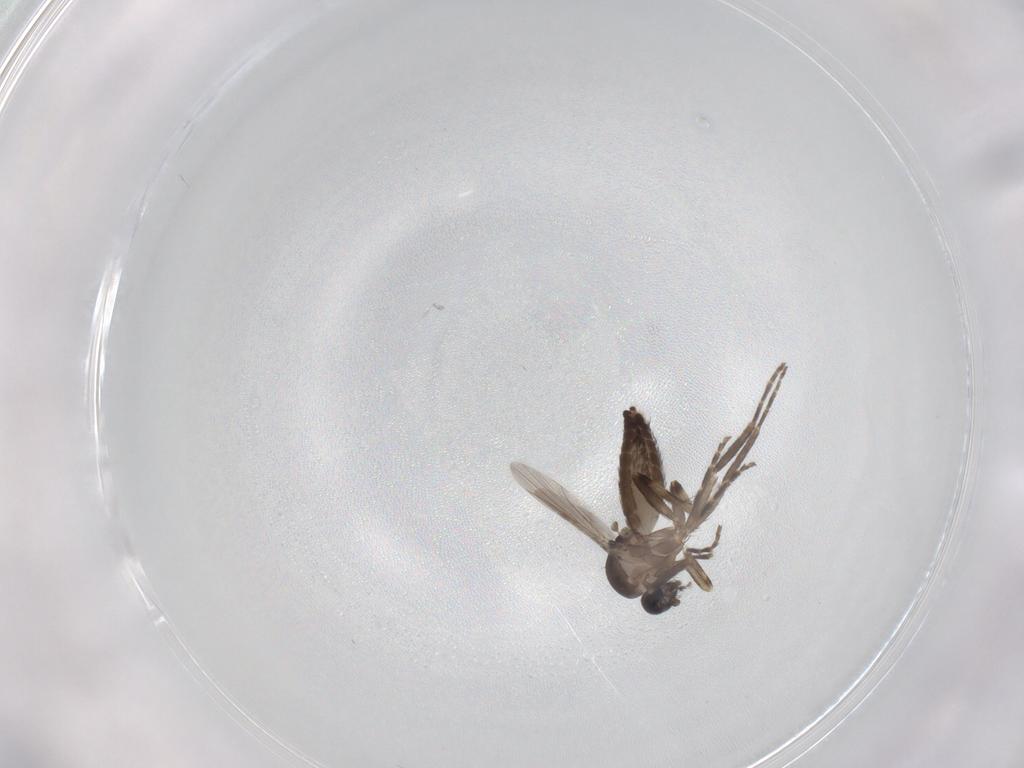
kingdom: Animalia
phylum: Arthropoda
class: Insecta
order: Diptera
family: Ceratopogonidae
